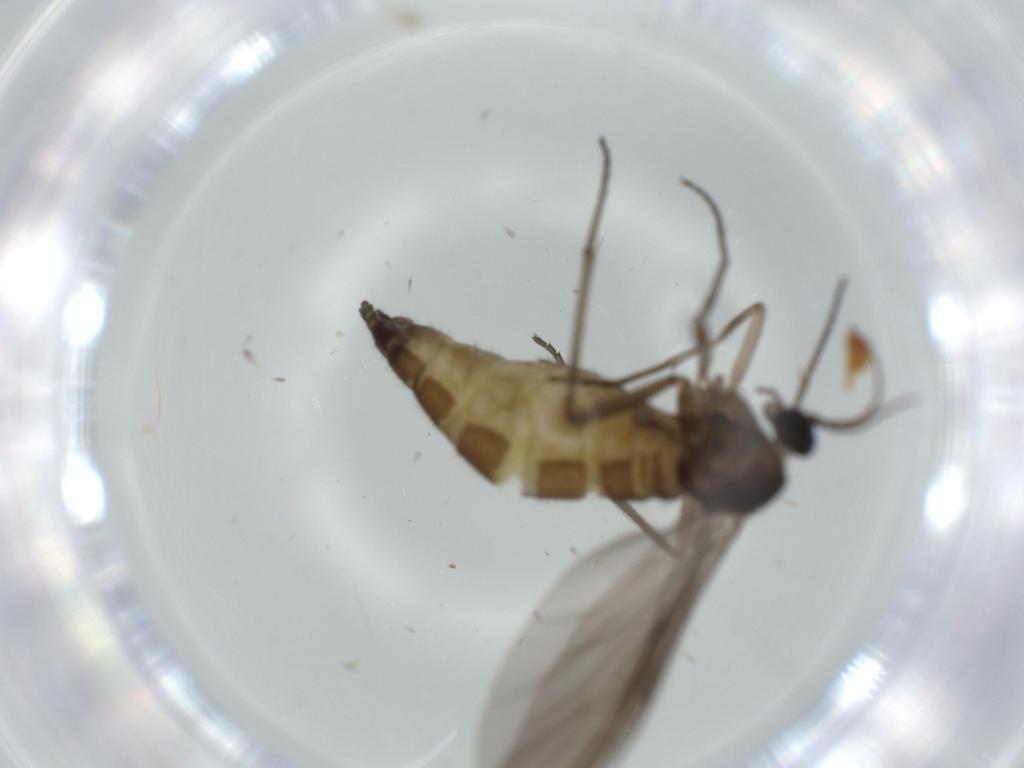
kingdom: Animalia
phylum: Arthropoda
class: Insecta
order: Diptera
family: Sciaridae
